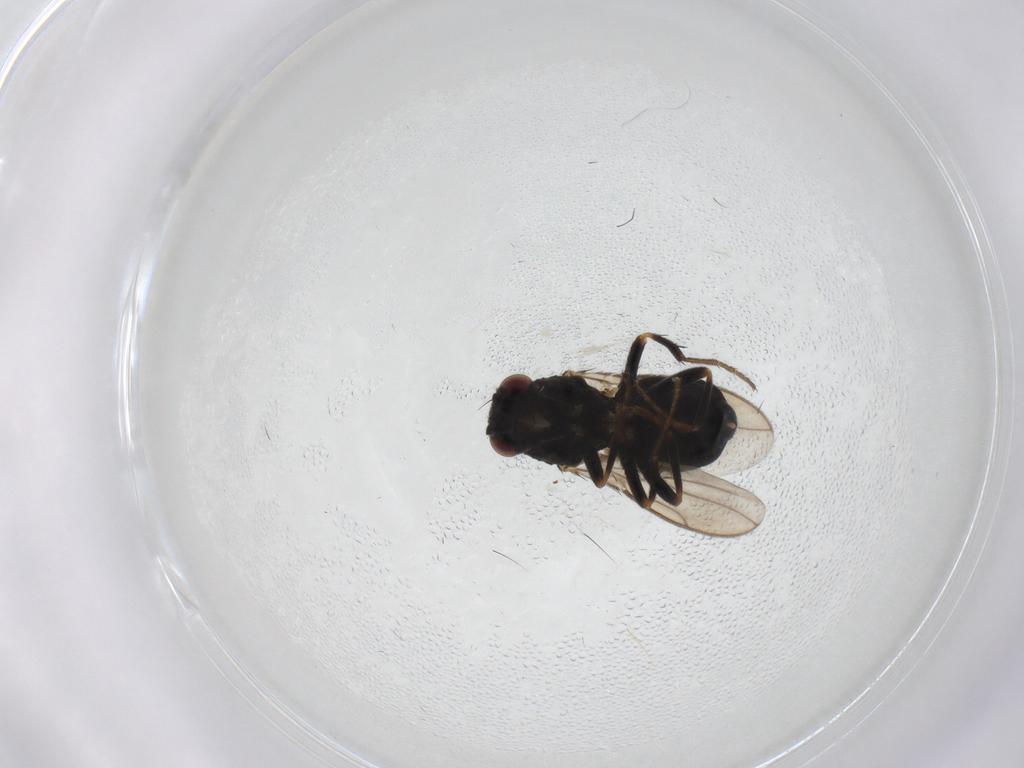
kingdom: Animalia
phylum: Arthropoda
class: Insecta
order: Diptera
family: Sphaeroceridae
